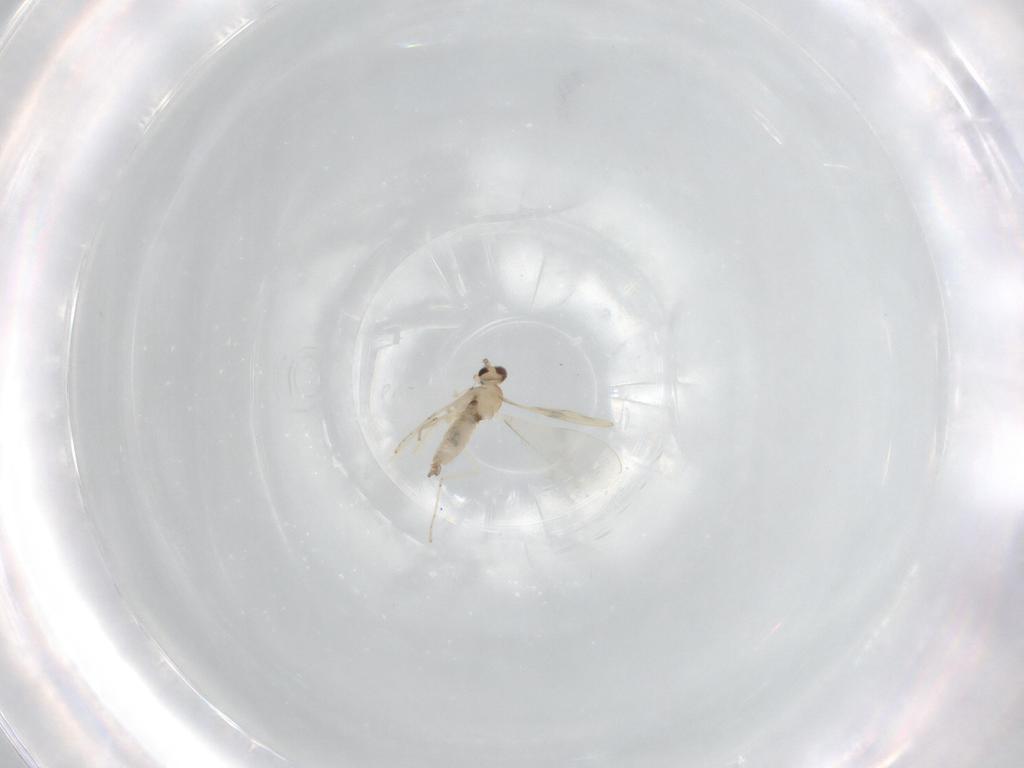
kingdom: Animalia
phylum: Arthropoda
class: Insecta
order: Diptera
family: Cecidomyiidae
